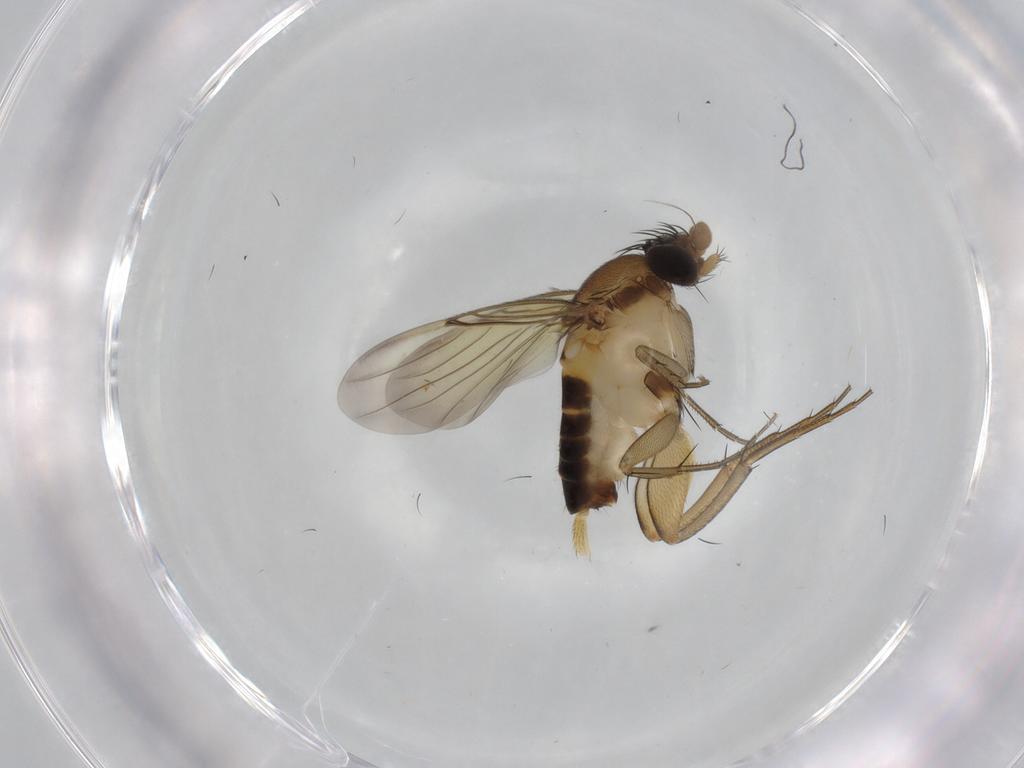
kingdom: Animalia
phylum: Arthropoda
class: Insecta
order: Diptera
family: Phoridae
